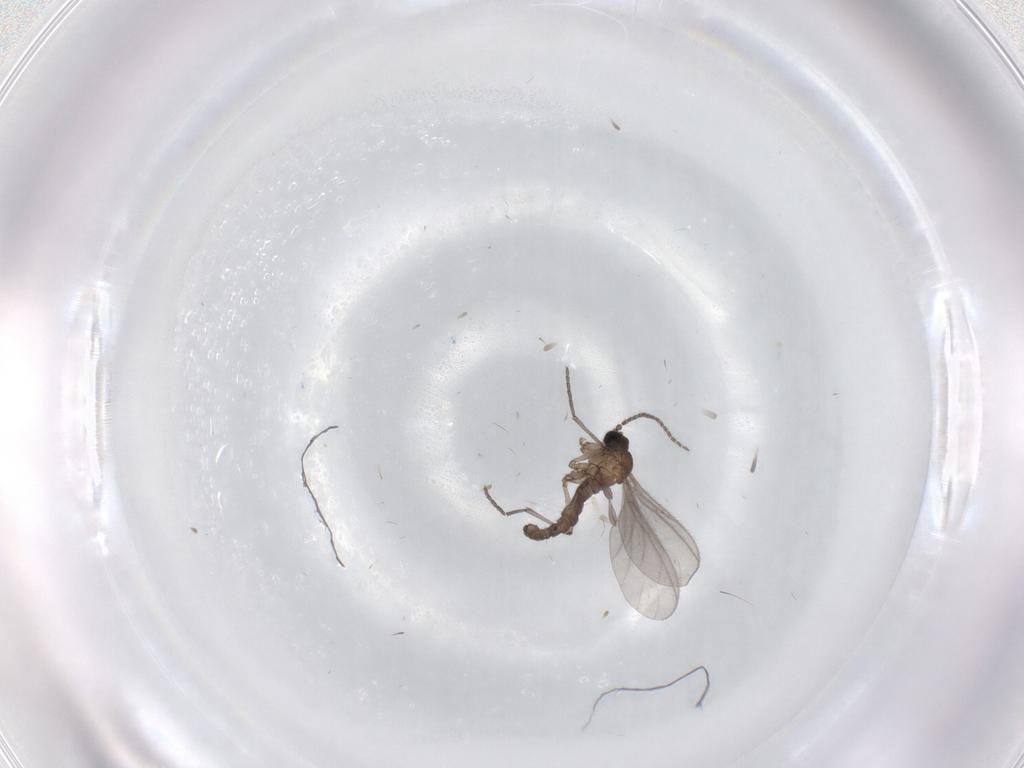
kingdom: Animalia
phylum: Arthropoda
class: Insecta
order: Diptera
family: Sciaridae
